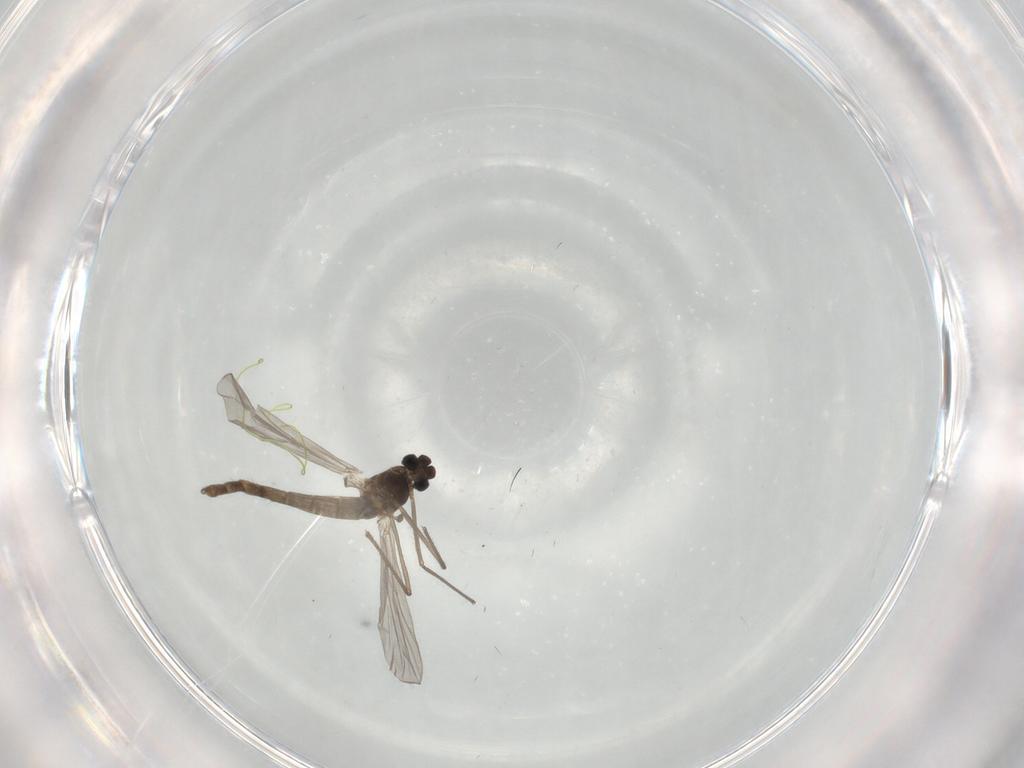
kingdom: Animalia
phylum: Arthropoda
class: Insecta
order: Diptera
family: Chironomidae
